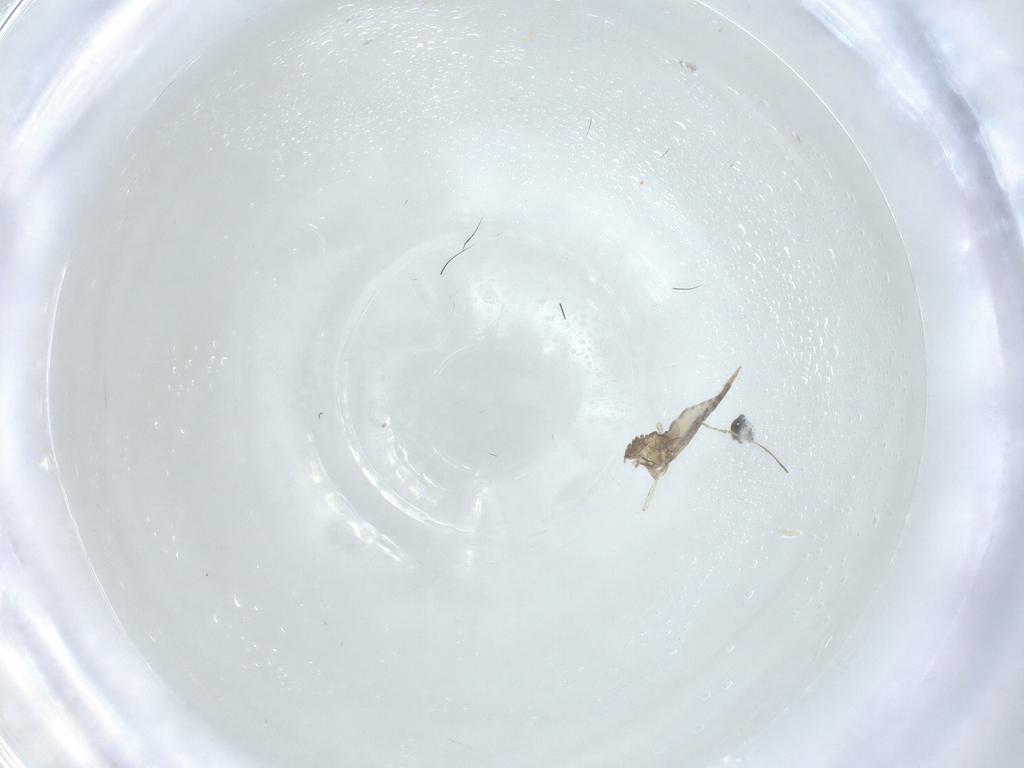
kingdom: Animalia
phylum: Arthropoda
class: Insecta
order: Diptera
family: Cecidomyiidae
